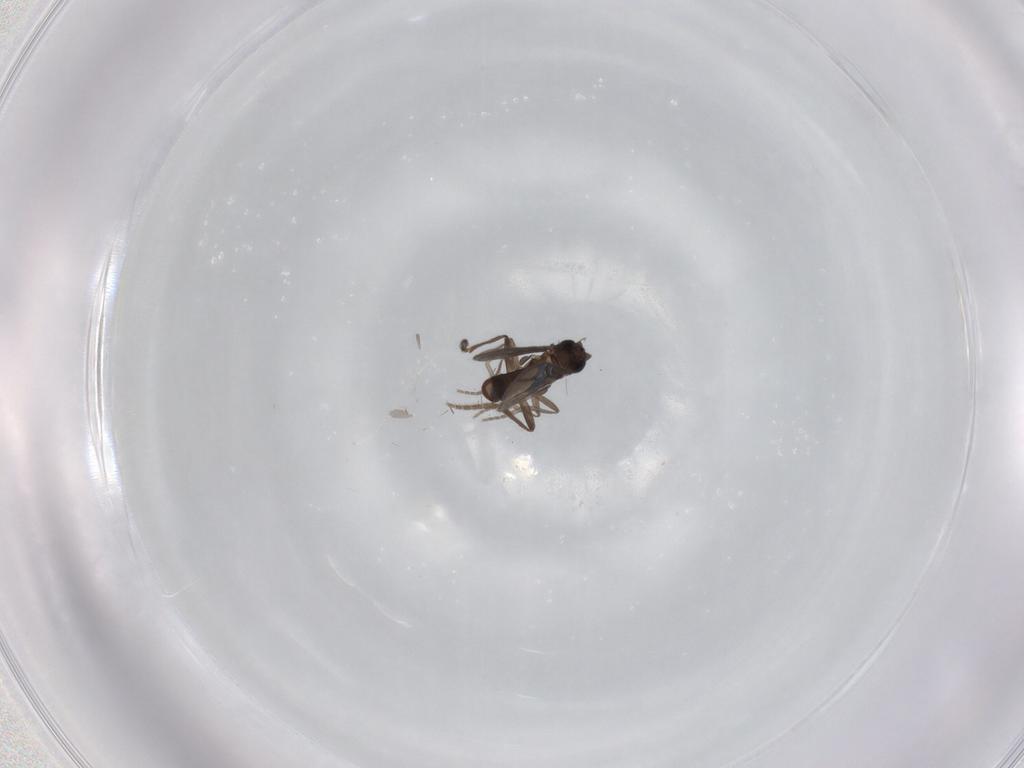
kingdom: Animalia
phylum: Arthropoda
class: Insecta
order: Diptera
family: Phoridae
